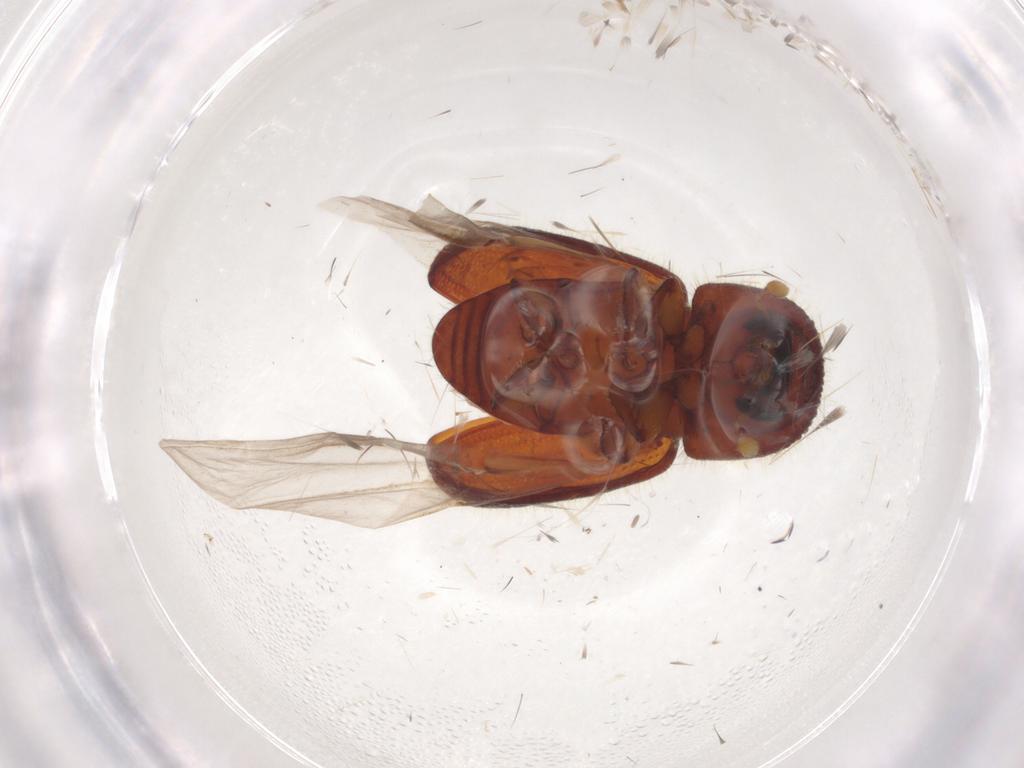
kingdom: Animalia
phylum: Arthropoda
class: Insecta
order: Coleoptera
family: Curculionidae
